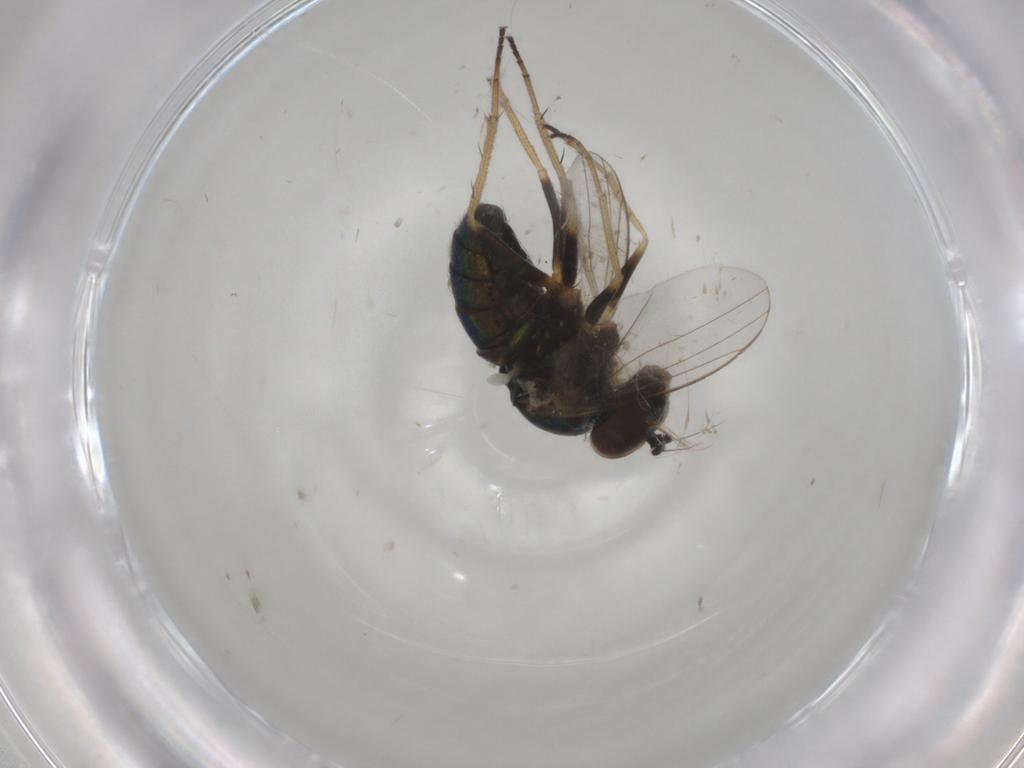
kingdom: Animalia
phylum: Arthropoda
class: Insecta
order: Diptera
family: Dolichopodidae
